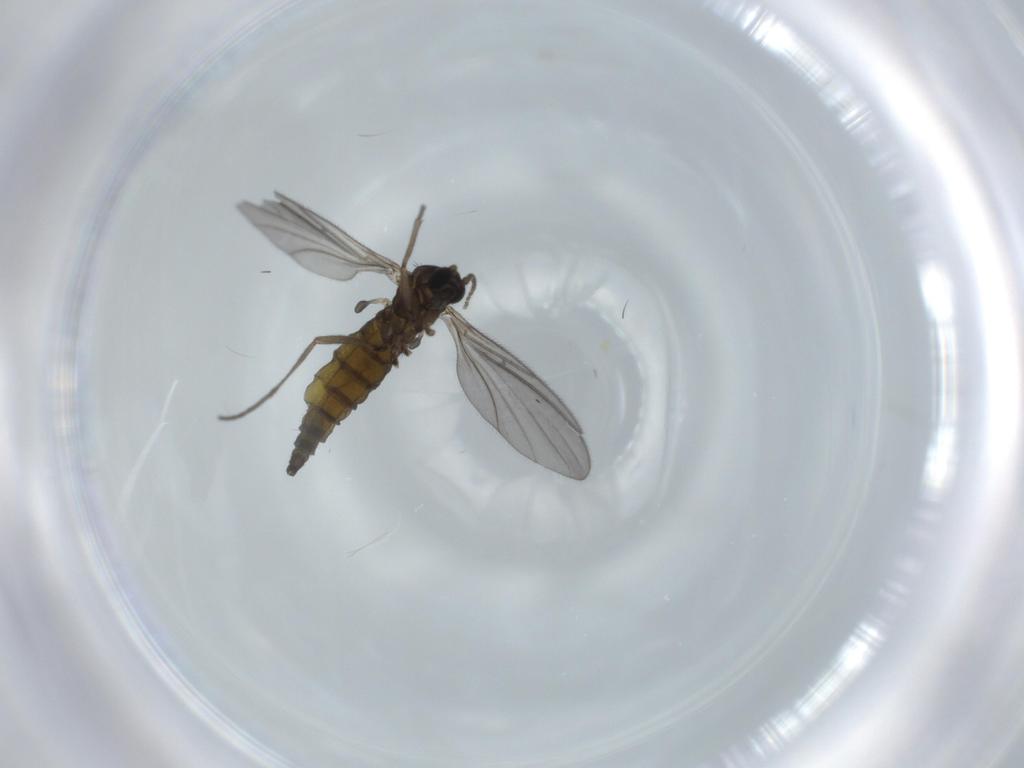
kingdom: Animalia
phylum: Arthropoda
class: Insecta
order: Diptera
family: Sciaridae
